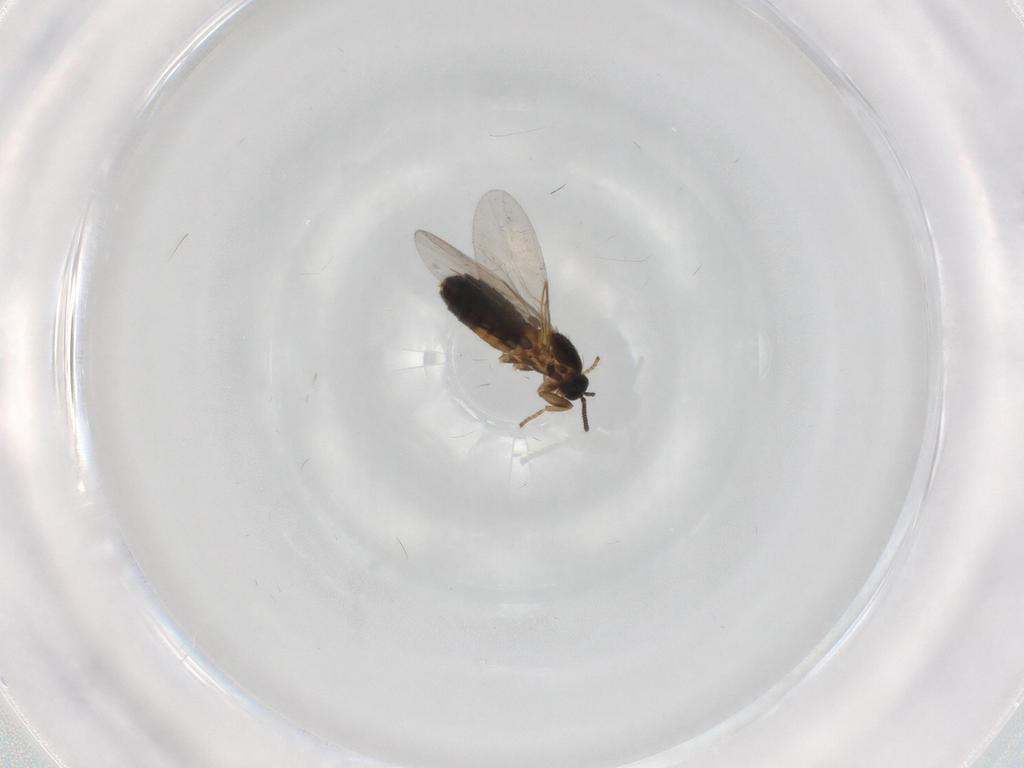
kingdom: Animalia
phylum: Arthropoda
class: Insecta
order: Diptera
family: Scatopsidae
